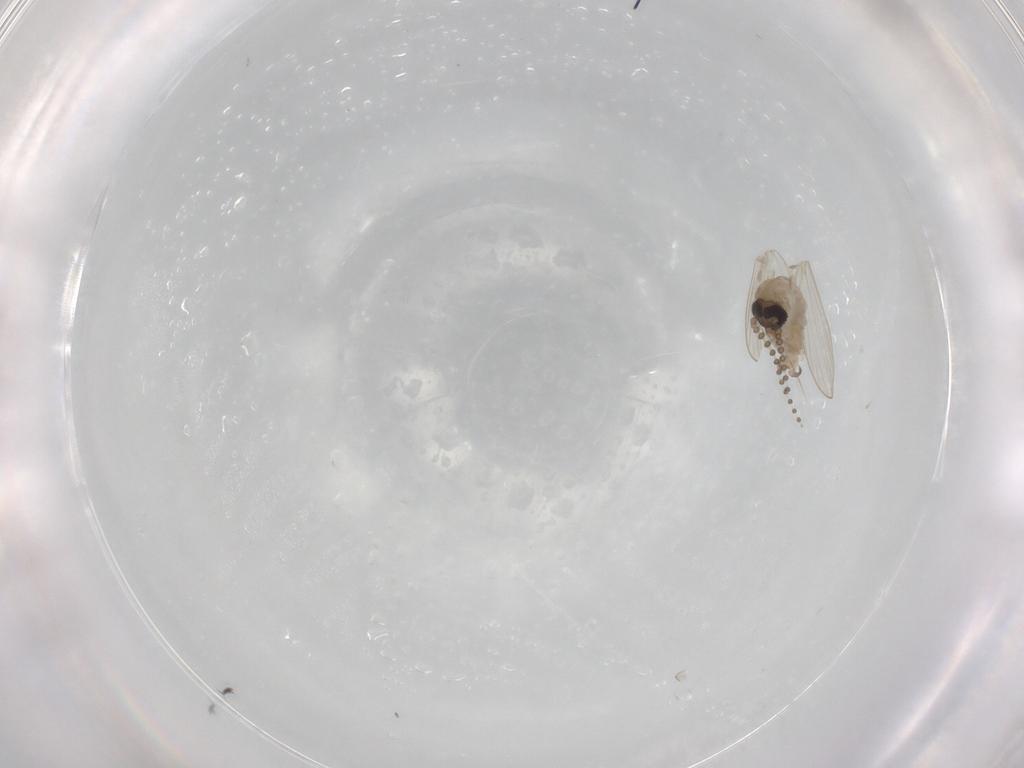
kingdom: Animalia
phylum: Arthropoda
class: Insecta
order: Diptera
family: Psychodidae
